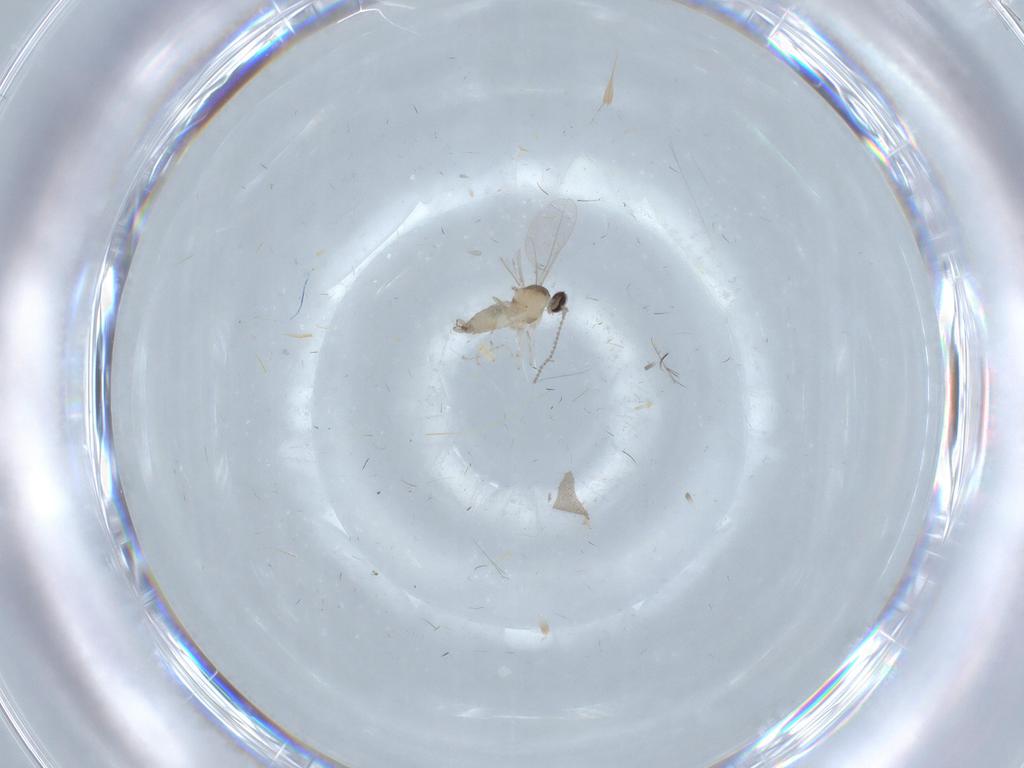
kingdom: Animalia
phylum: Arthropoda
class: Insecta
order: Diptera
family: Cecidomyiidae
